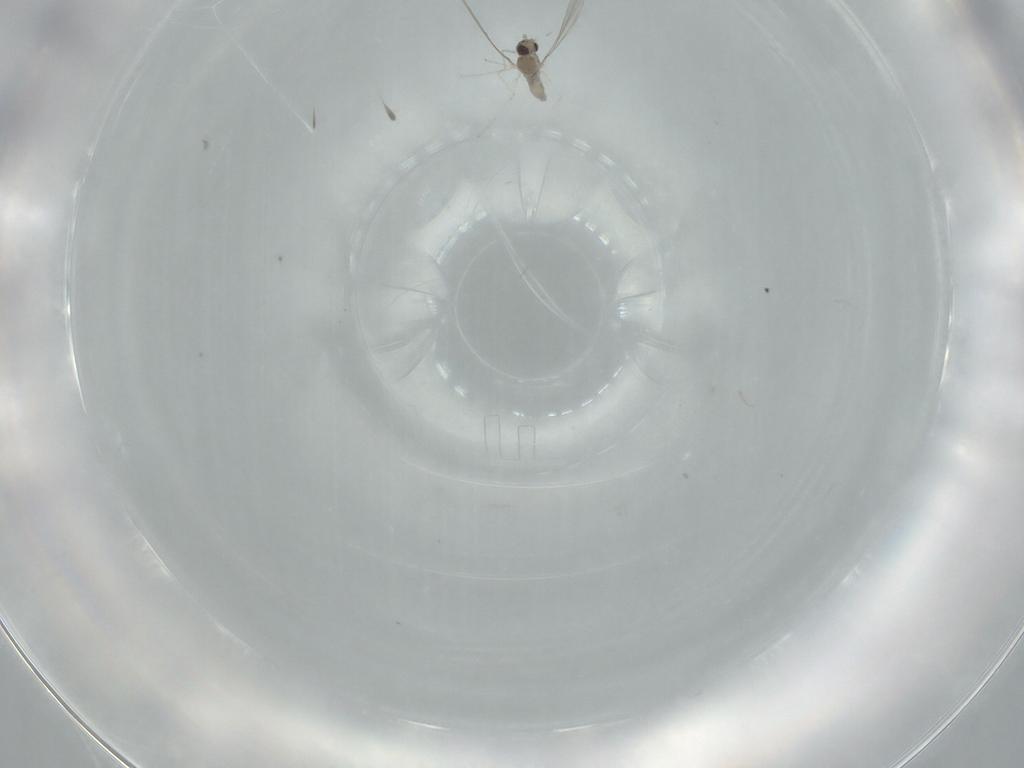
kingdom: Animalia
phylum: Arthropoda
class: Insecta
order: Diptera
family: Cecidomyiidae
